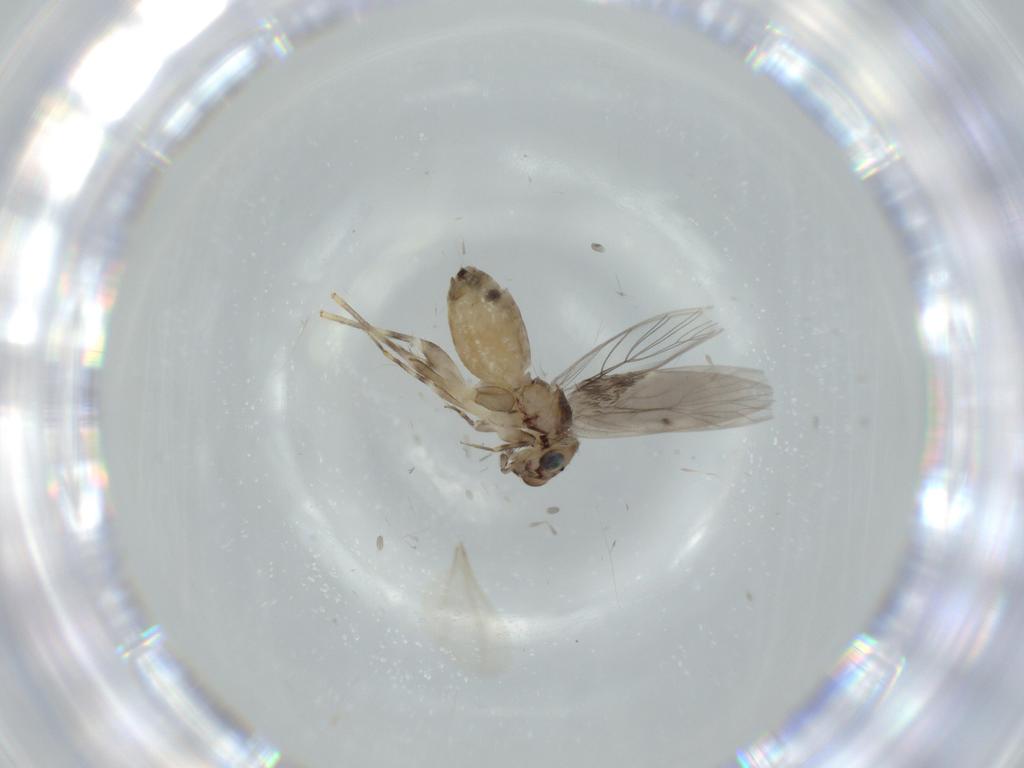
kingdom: Animalia
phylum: Arthropoda
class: Insecta
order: Psocodea
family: Lepidopsocidae
